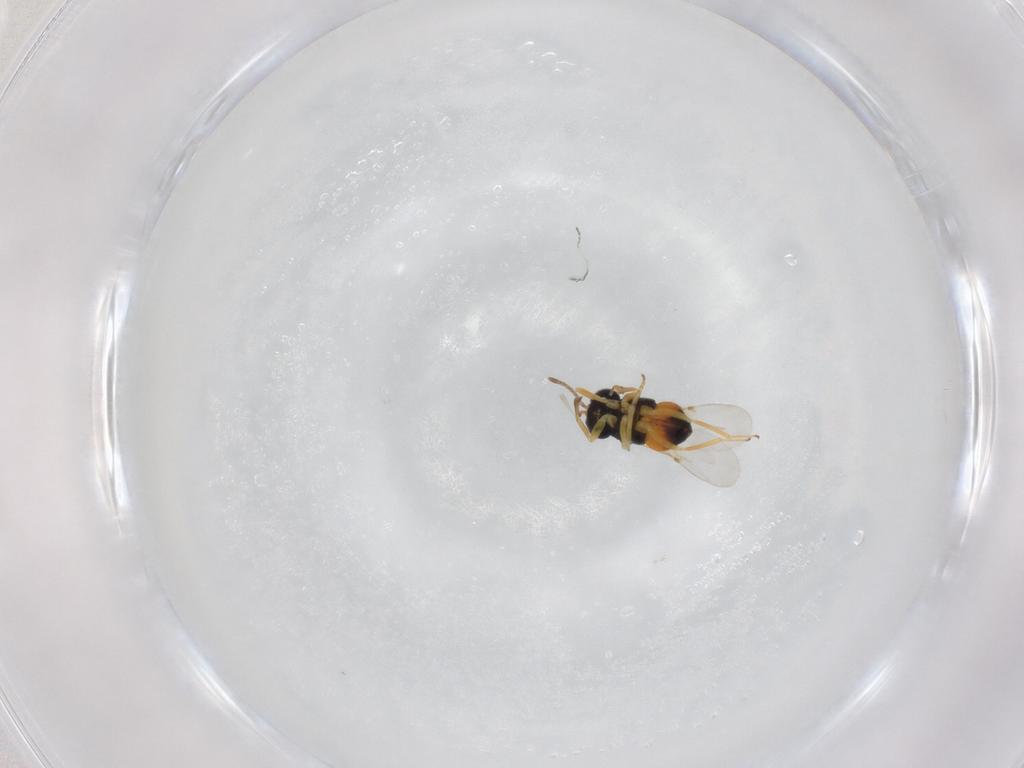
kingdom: Animalia
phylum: Arthropoda
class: Insecta
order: Hymenoptera
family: Encyrtidae
